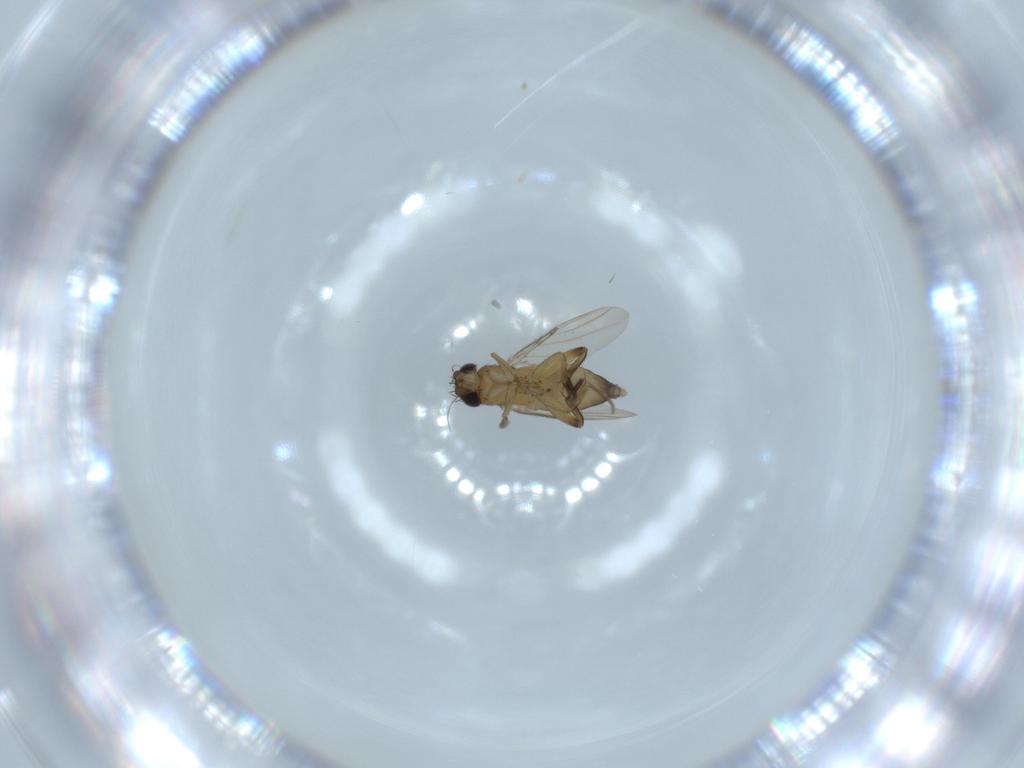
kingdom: Animalia
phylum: Arthropoda
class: Insecta
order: Diptera
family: Phoridae
